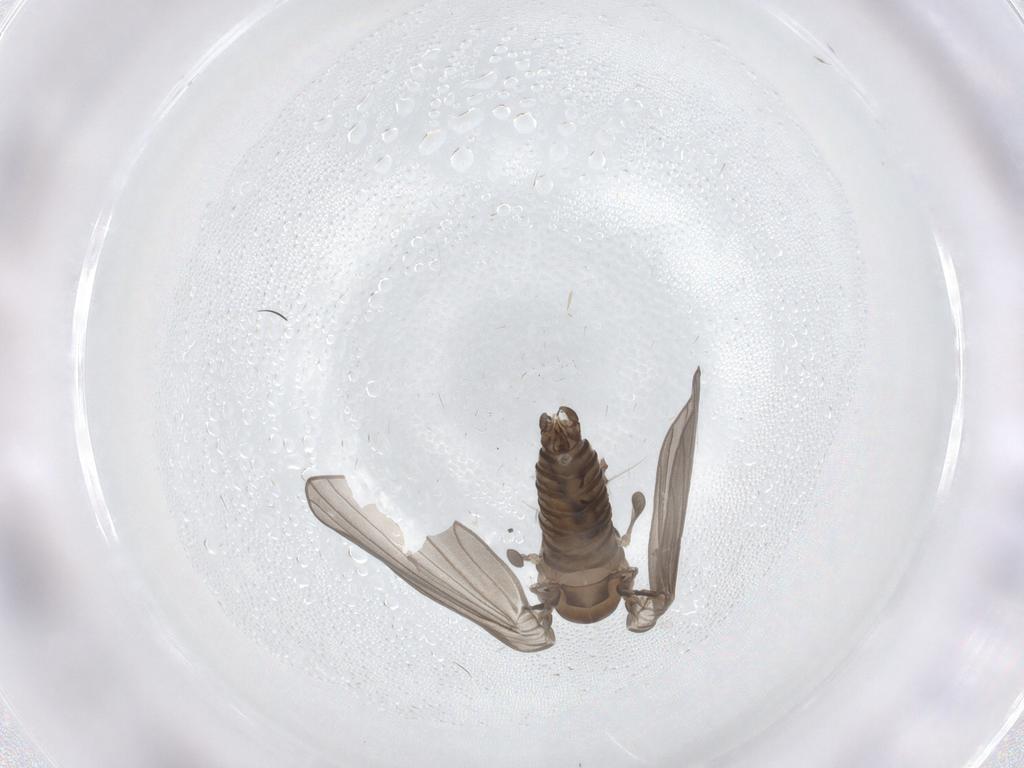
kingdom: Animalia
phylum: Arthropoda
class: Insecta
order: Diptera
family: Psychodidae
